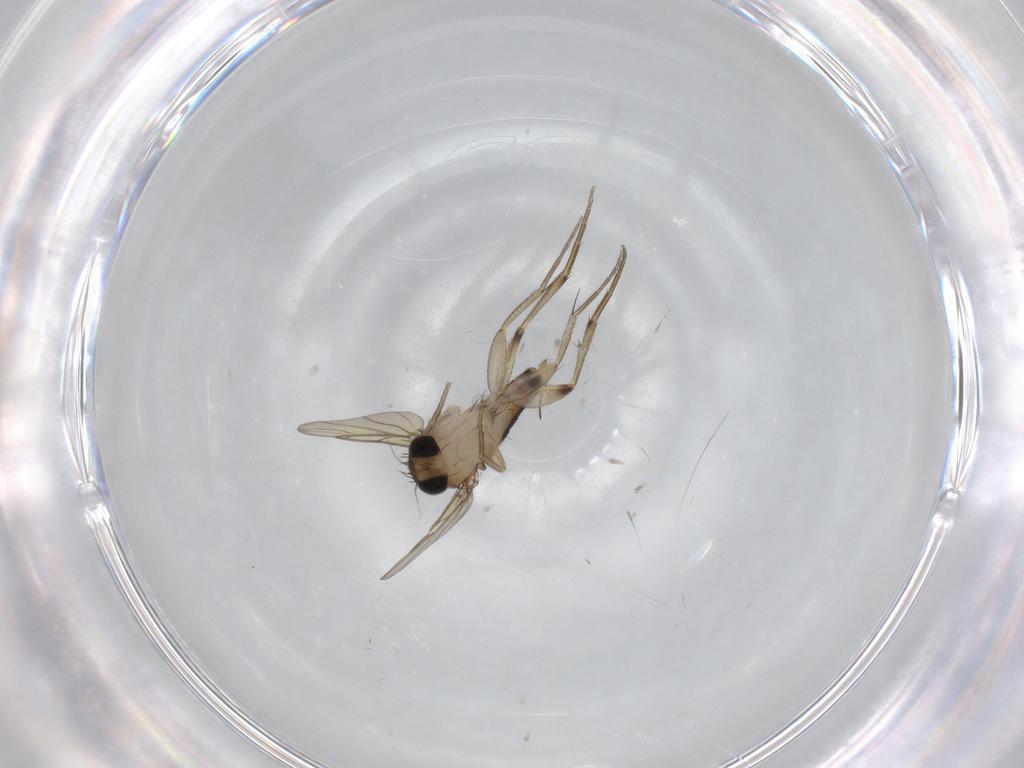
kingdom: Animalia
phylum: Arthropoda
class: Insecta
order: Diptera
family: Phoridae
